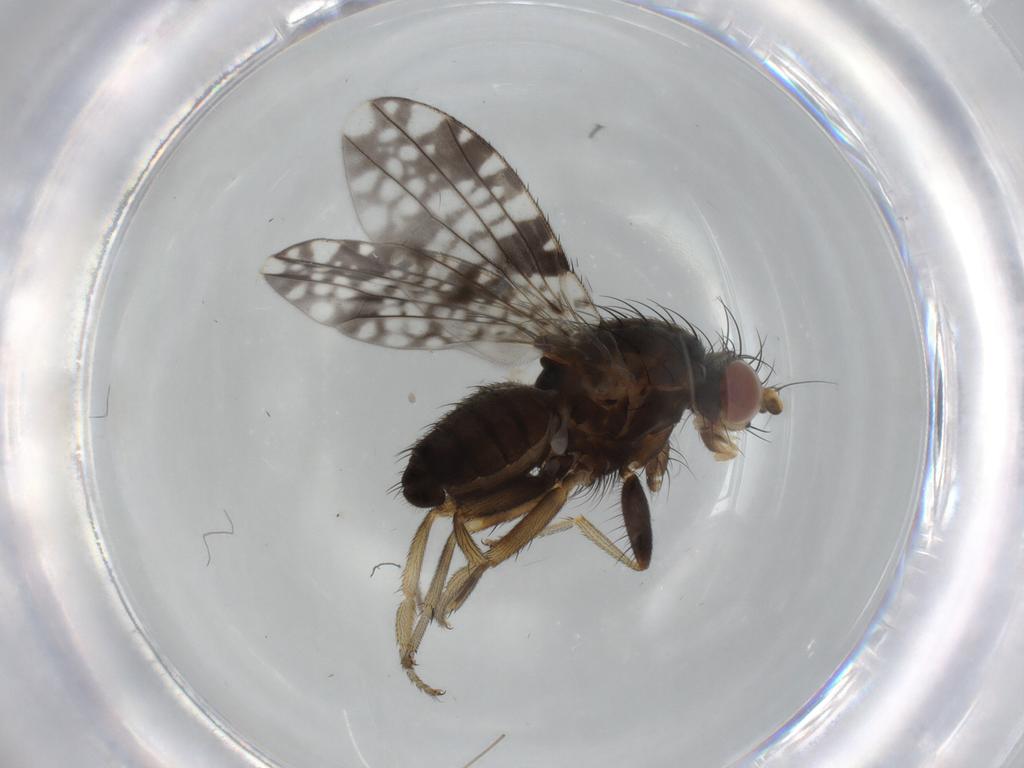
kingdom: Animalia
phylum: Arthropoda
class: Insecta
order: Diptera
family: Tephritidae
